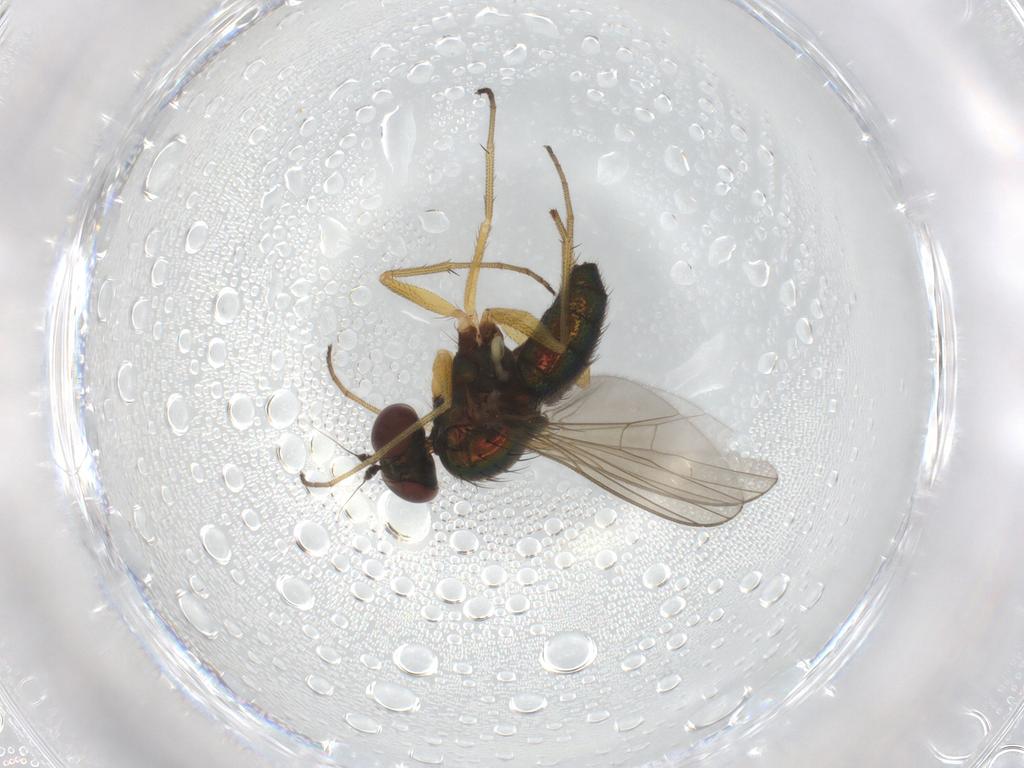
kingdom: Animalia
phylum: Arthropoda
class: Insecta
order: Diptera
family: Dolichopodidae
